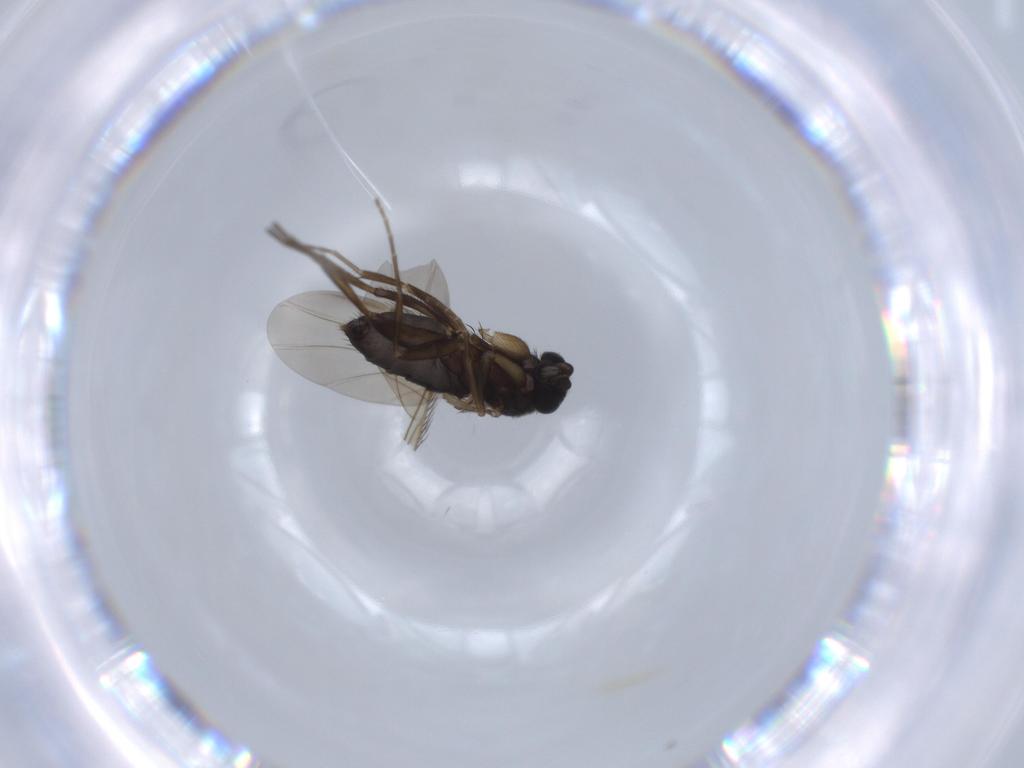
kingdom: Animalia
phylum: Arthropoda
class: Insecta
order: Diptera
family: Phoridae
